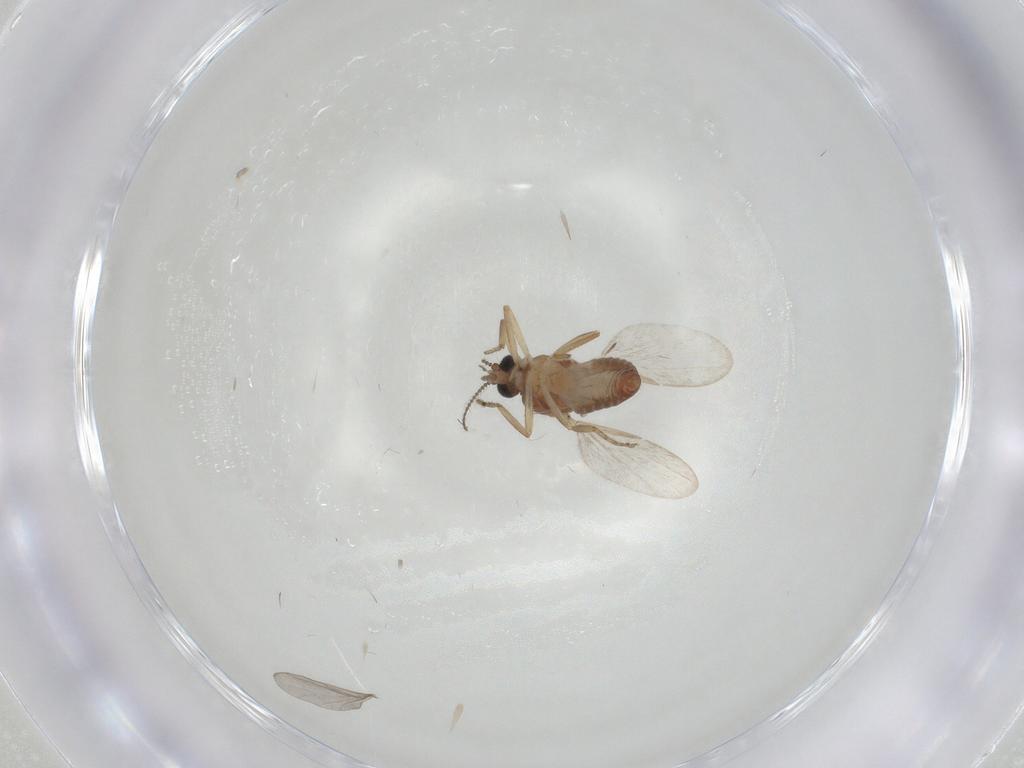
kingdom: Animalia
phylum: Arthropoda
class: Insecta
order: Diptera
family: Ceratopogonidae
